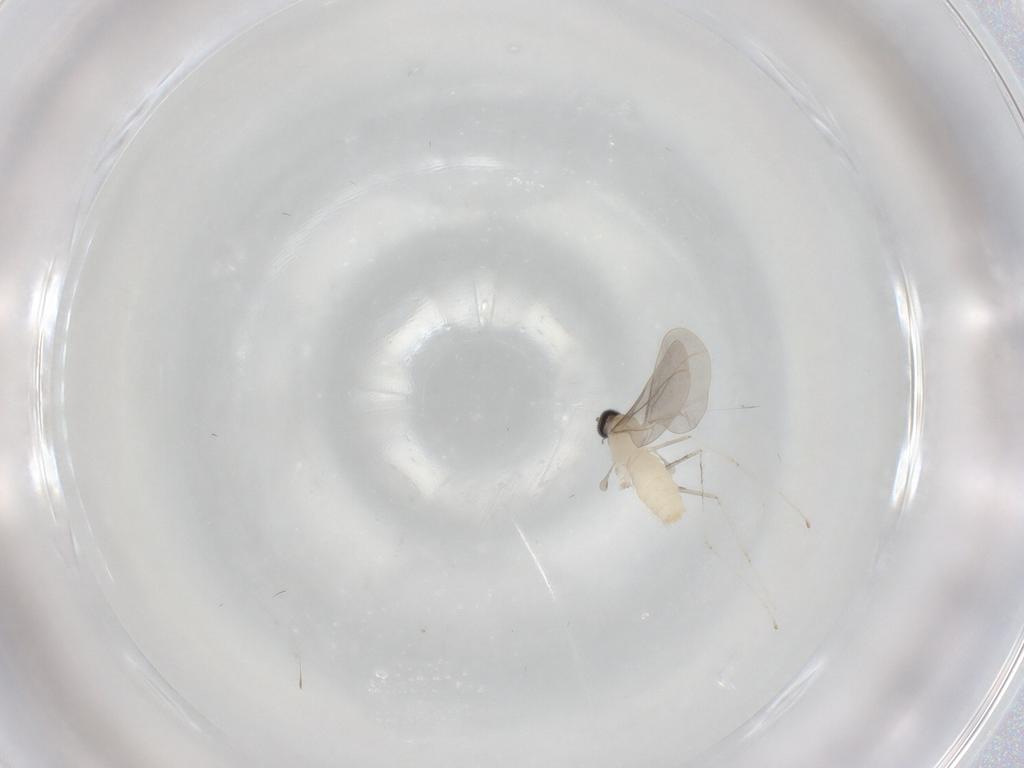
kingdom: Animalia
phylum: Arthropoda
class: Insecta
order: Diptera
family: Cecidomyiidae
